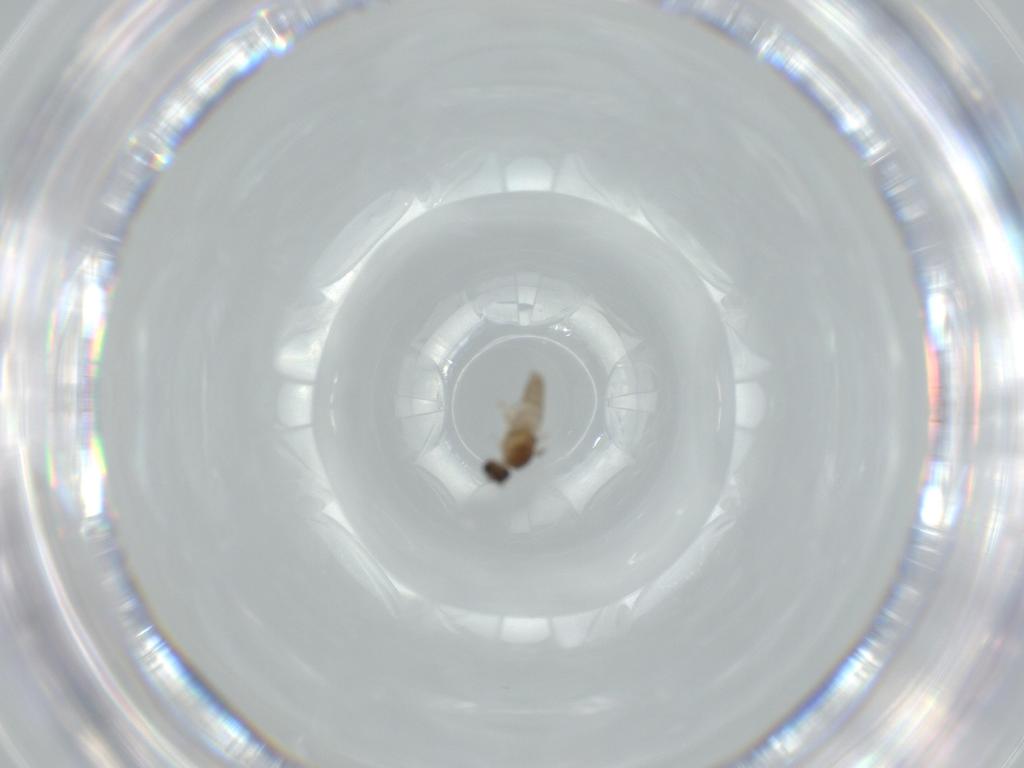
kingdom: Animalia
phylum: Arthropoda
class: Insecta
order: Diptera
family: Cecidomyiidae
